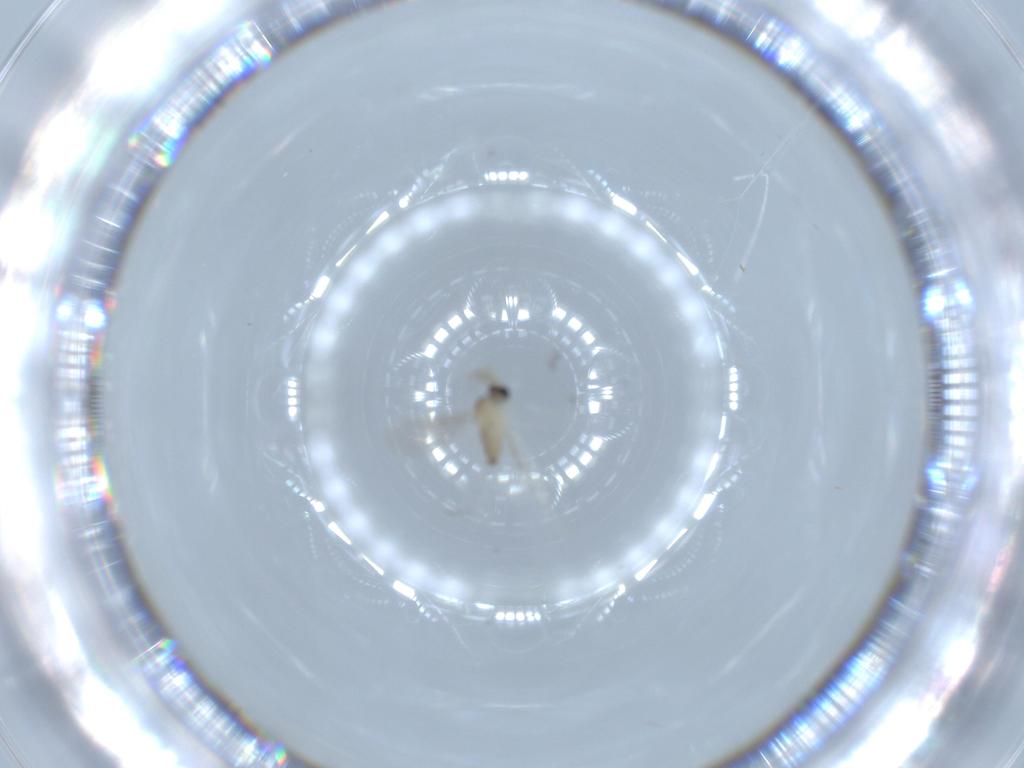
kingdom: Animalia
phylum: Arthropoda
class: Insecta
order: Diptera
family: Cecidomyiidae
